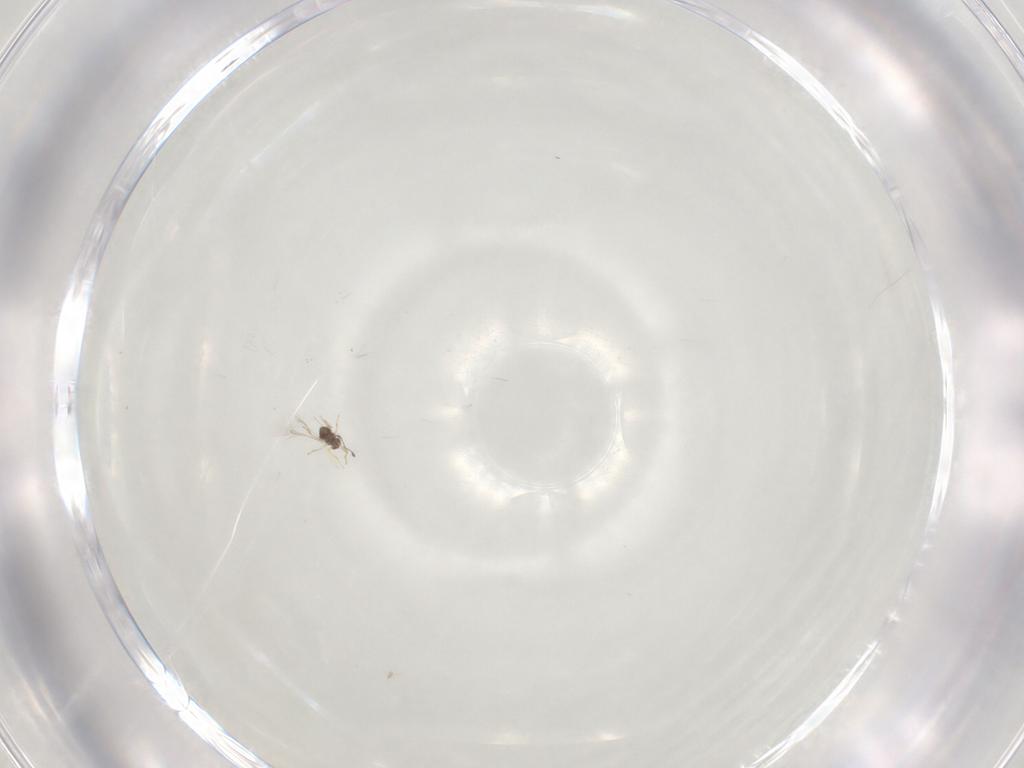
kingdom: Animalia
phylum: Arthropoda
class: Insecta
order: Hymenoptera
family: Mymaridae
